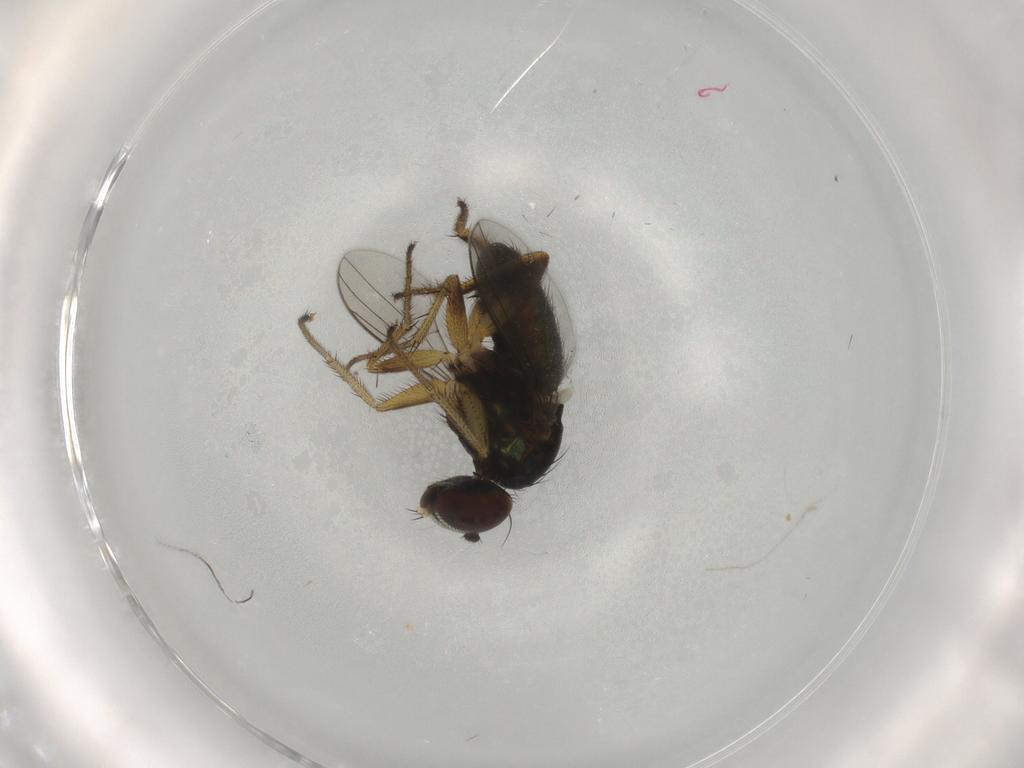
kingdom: Animalia
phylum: Arthropoda
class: Insecta
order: Diptera
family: Dolichopodidae
